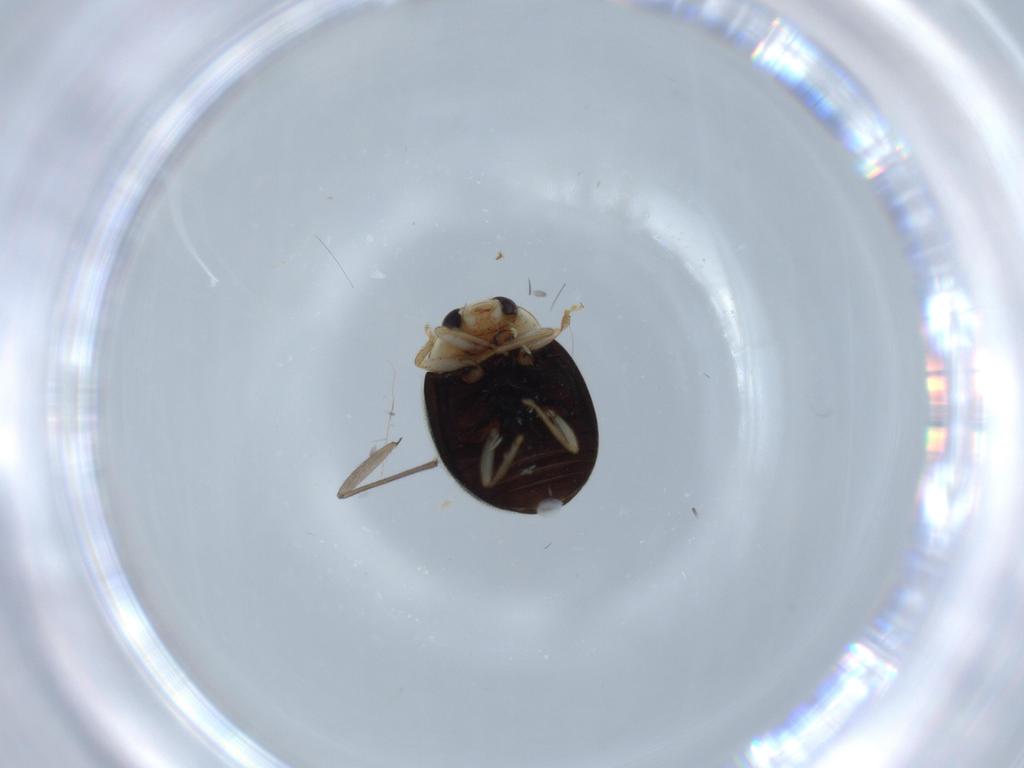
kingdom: Animalia
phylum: Arthropoda
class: Insecta
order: Coleoptera
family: Coccinellidae
